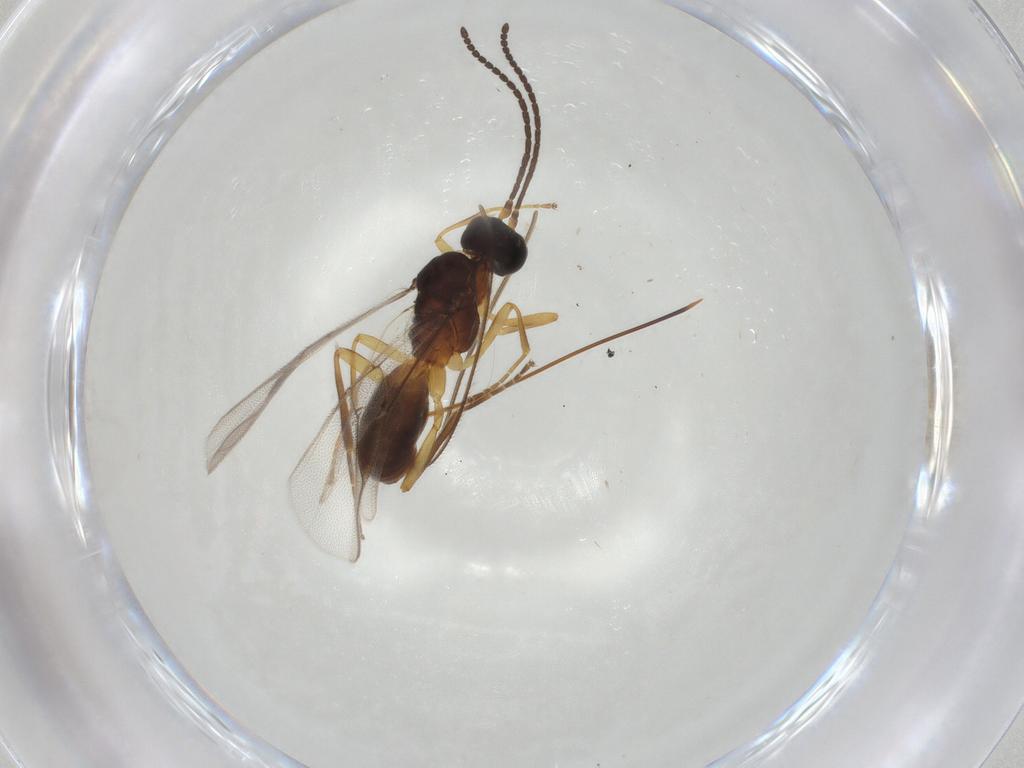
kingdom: Animalia
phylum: Arthropoda
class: Insecta
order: Hymenoptera
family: Braconidae
